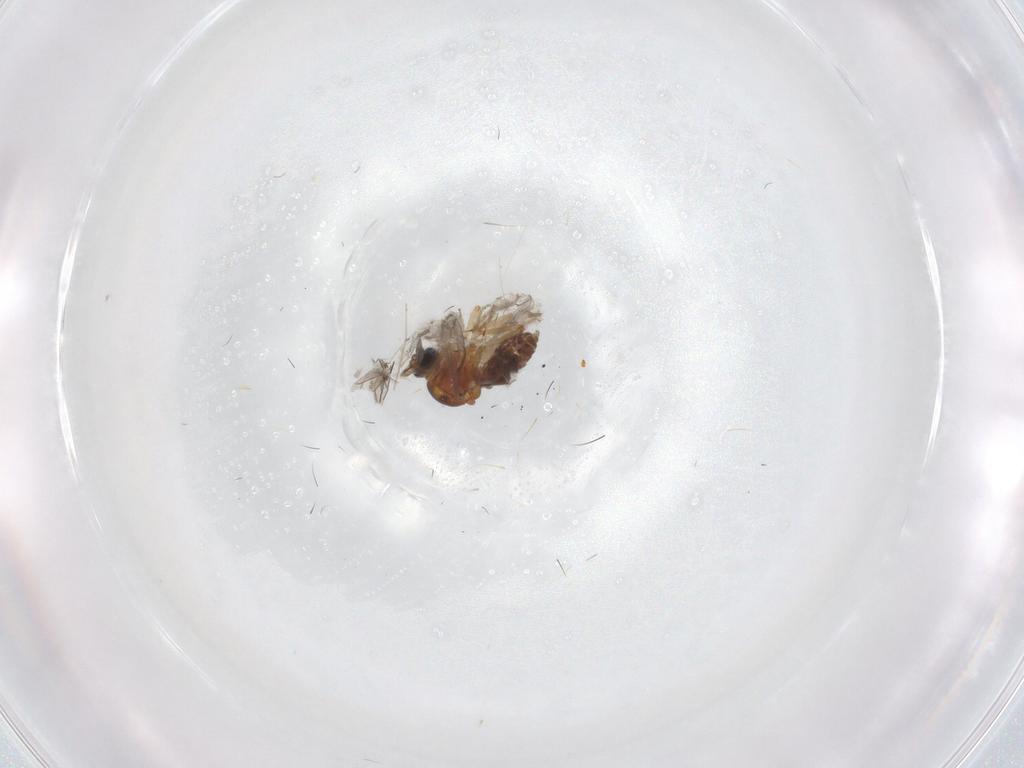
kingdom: Animalia
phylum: Arthropoda
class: Insecta
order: Diptera
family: Ceratopogonidae
